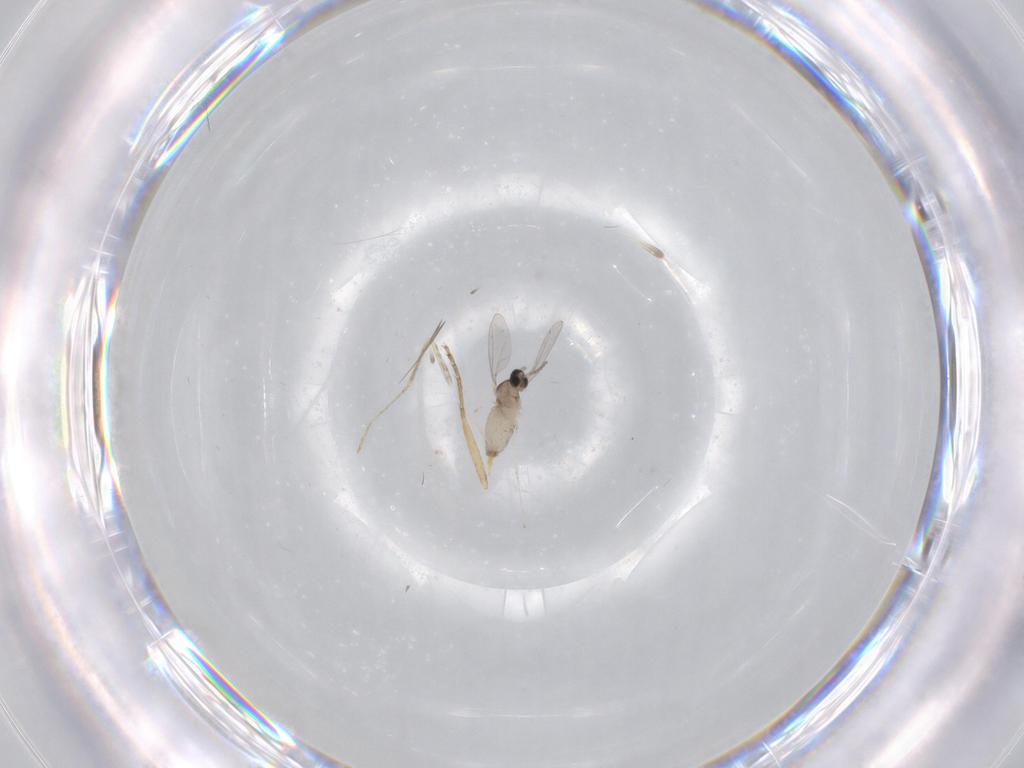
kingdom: Animalia
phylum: Arthropoda
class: Insecta
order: Diptera
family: Cecidomyiidae
